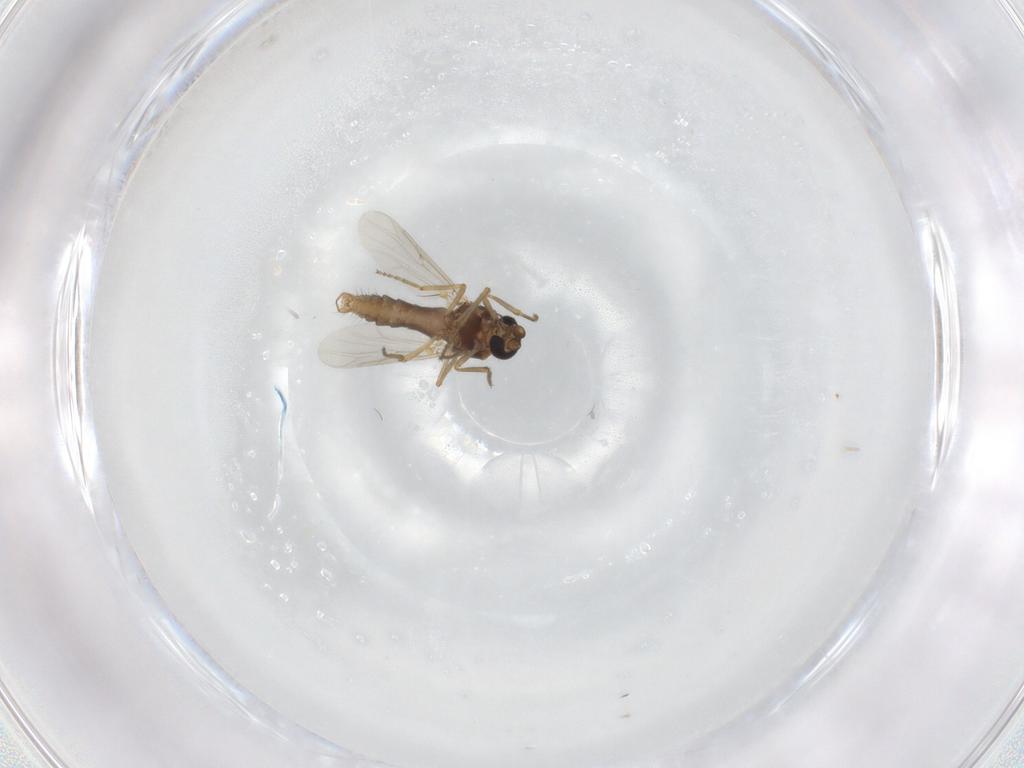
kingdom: Animalia
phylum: Arthropoda
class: Insecta
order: Diptera
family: Ceratopogonidae
